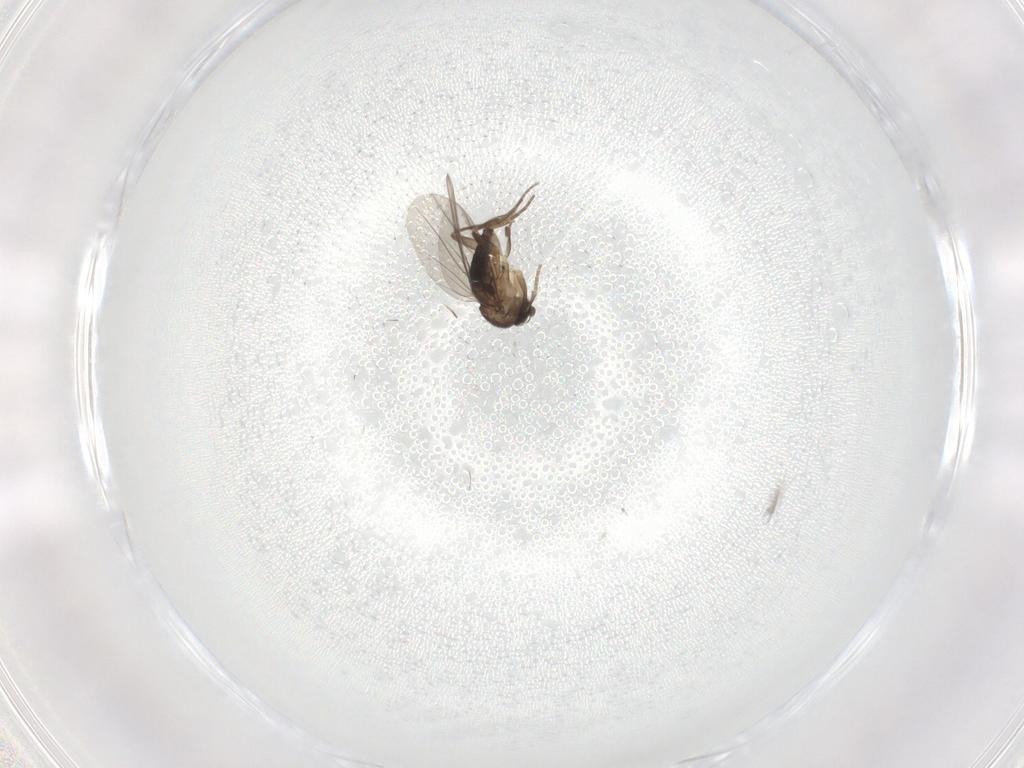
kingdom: Animalia
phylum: Arthropoda
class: Insecta
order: Diptera
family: Phoridae
